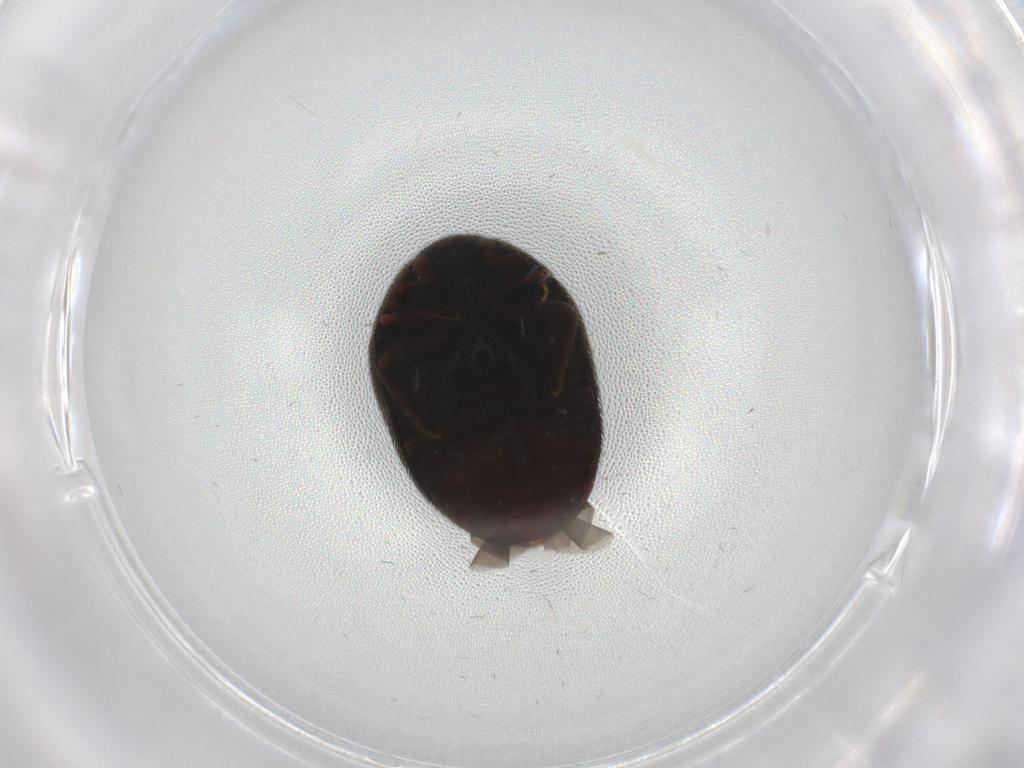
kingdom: Animalia
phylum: Arthropoda
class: Insecta
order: Coleoptera
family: Dermestidae
